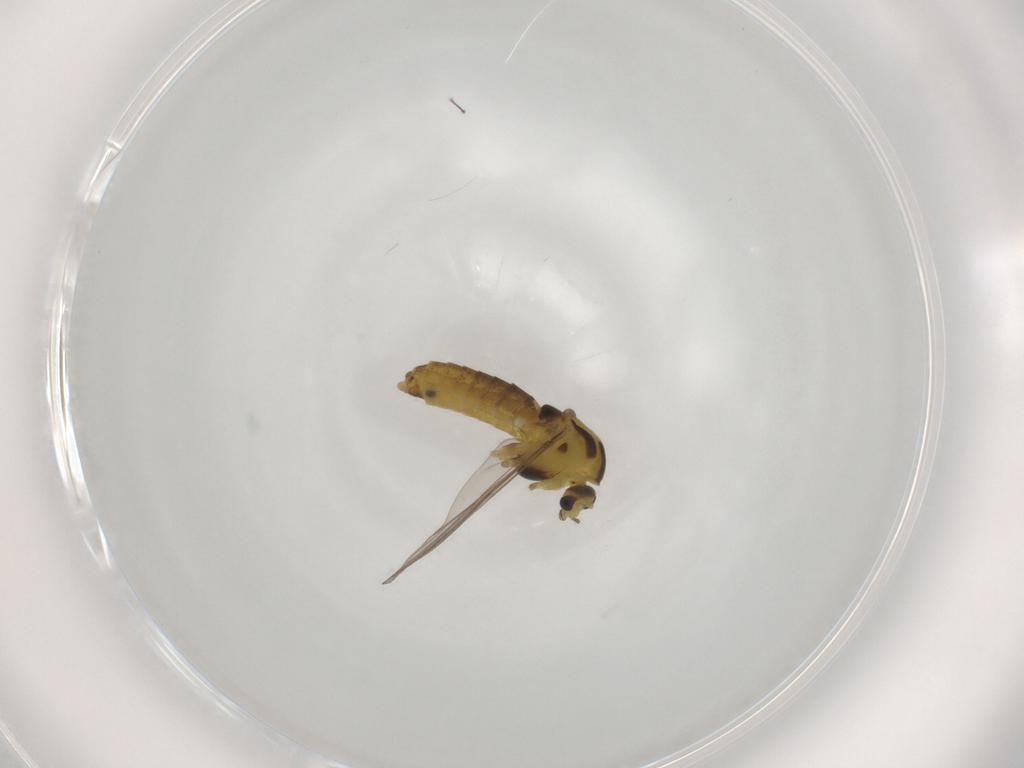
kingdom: Animalia
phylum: Arthropoda
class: Insecta
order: Diptera
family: Chironomidae
